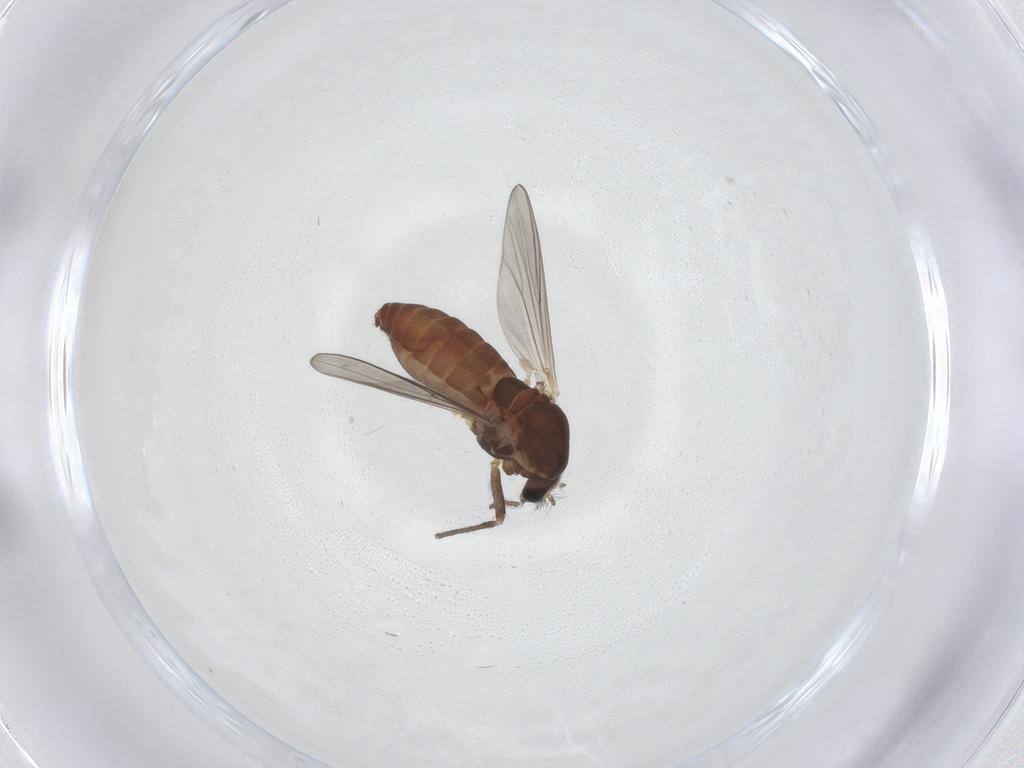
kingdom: Animalia
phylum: Arthropoda
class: Insecta
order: Diptera
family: Chironomidae
